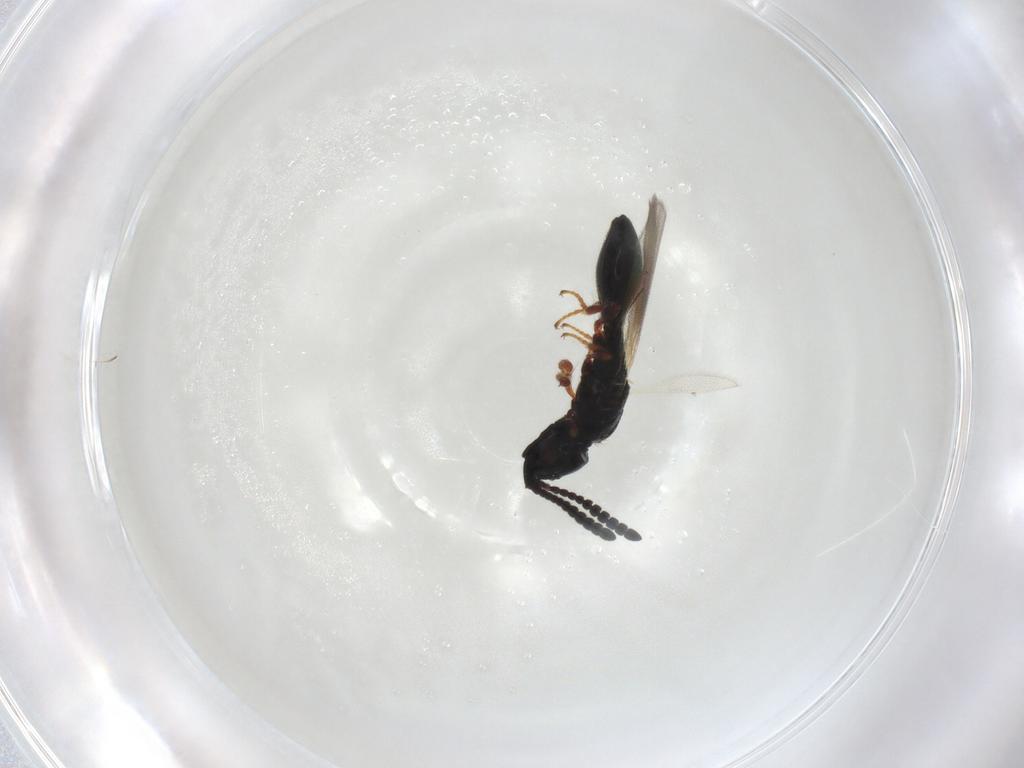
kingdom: Animalia
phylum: Arthropoda
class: Insecta
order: Hymenoptera
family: Diapriidae
